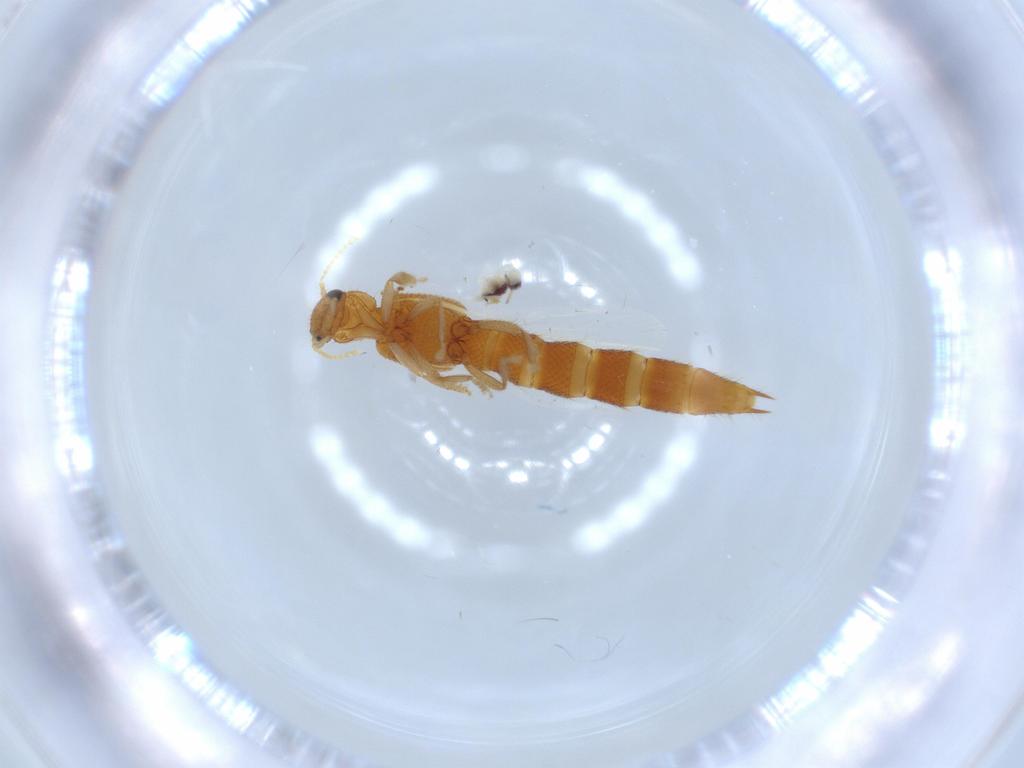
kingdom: Animalia
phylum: Arthropoda
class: Collembola
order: Symphypleona
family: Bourletiellidae
